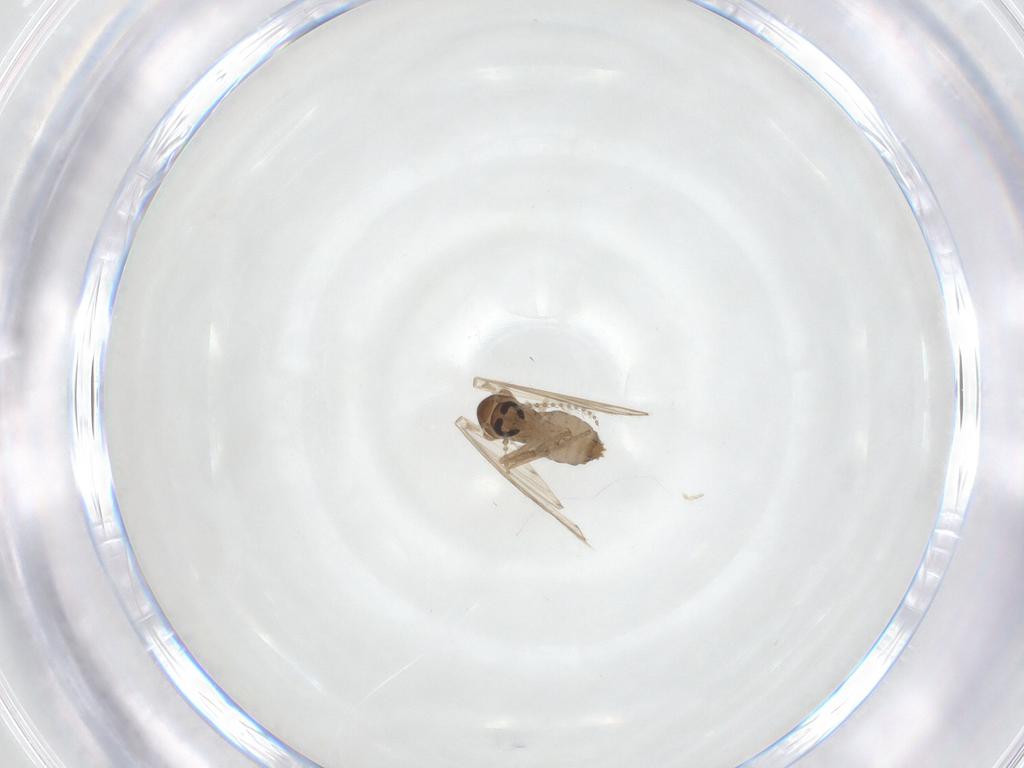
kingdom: Animalia
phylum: Arthropoda
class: Insecta
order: Diptera
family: Psychodidae
